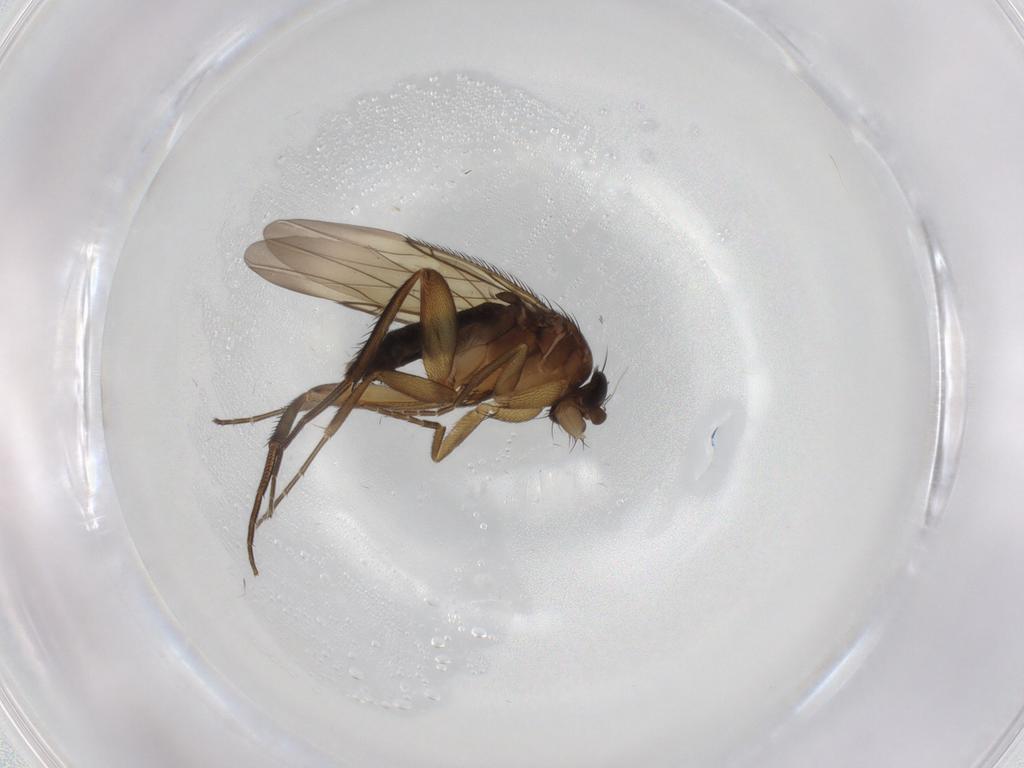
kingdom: Animalia
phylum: Arthropoda
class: Insecta
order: Diptera
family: Phoridae
